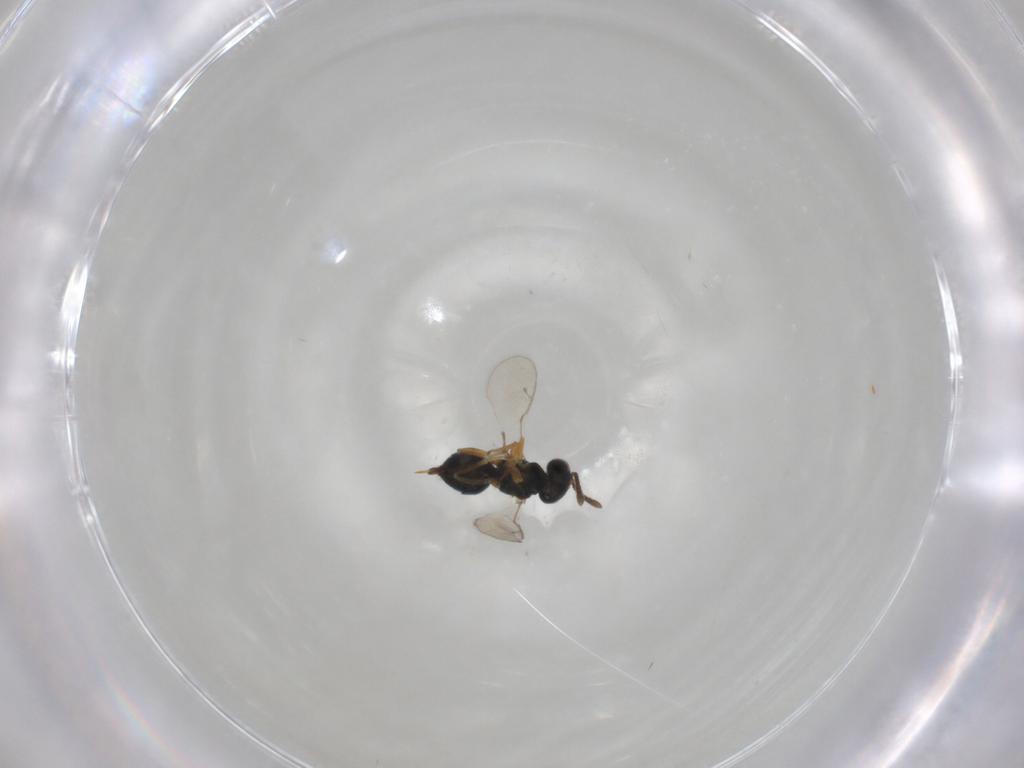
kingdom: Animalia
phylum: Arthropoda
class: Insecta
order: Hymenoptera
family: Pteromalidae
